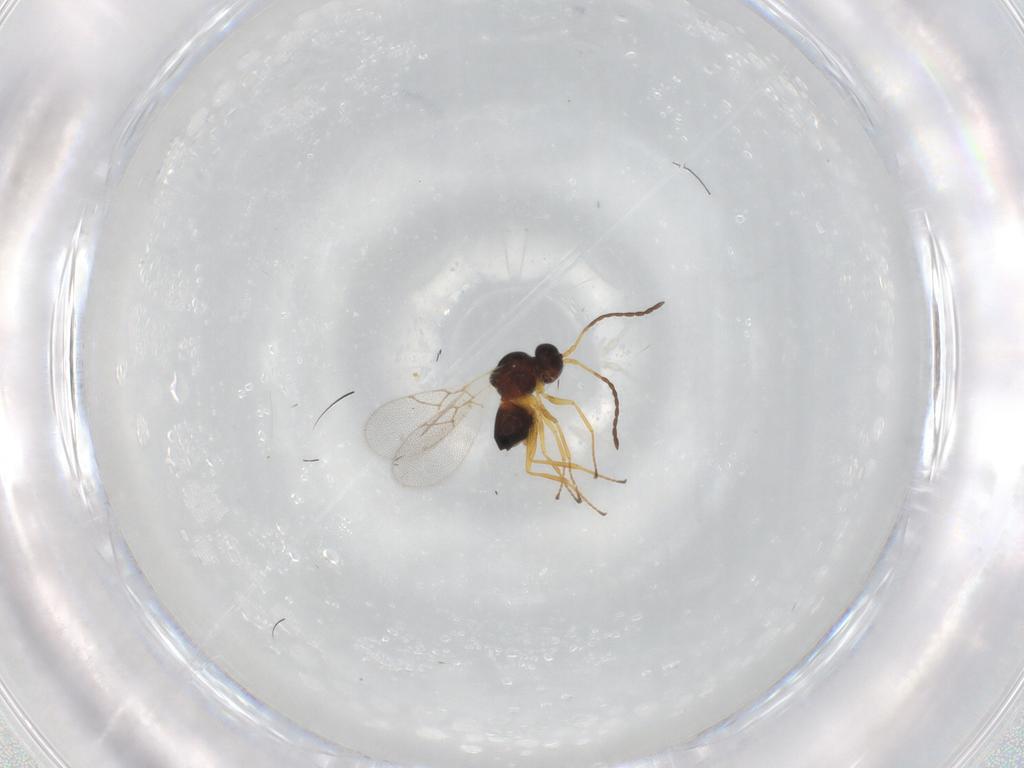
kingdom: Animalia
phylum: Arthropoda
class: Insecta
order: Hymenoptera
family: Figitidae
